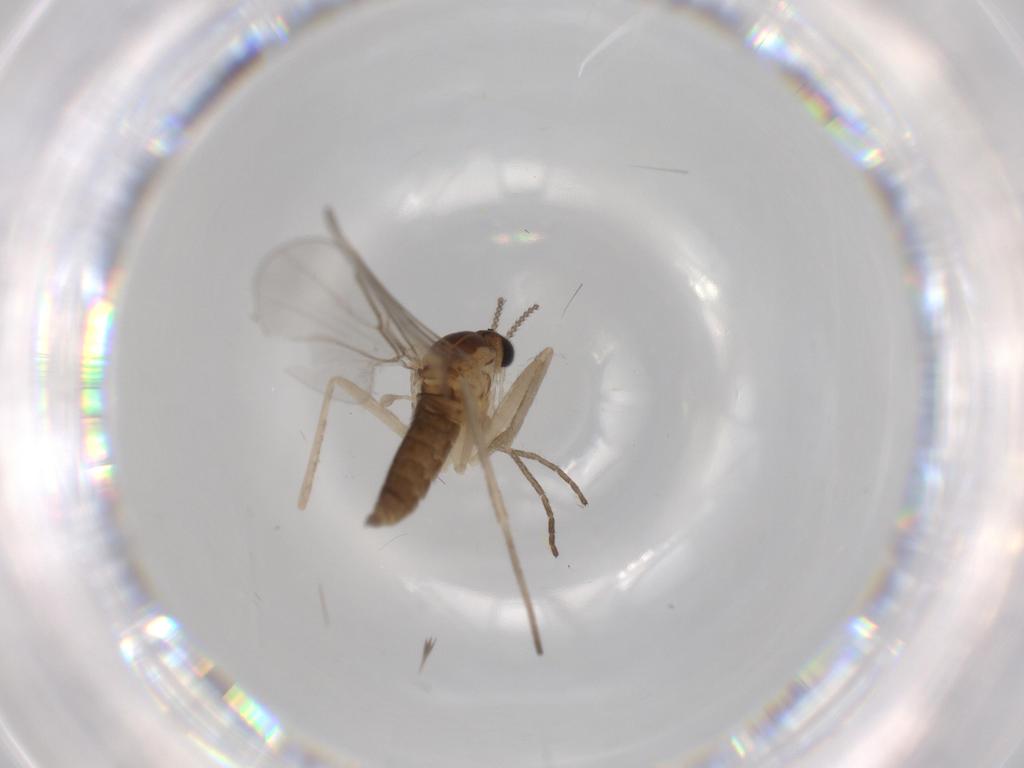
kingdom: Animalia
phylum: Arthropoda
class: Insecta
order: Diptera
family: Cecidomyiidae
